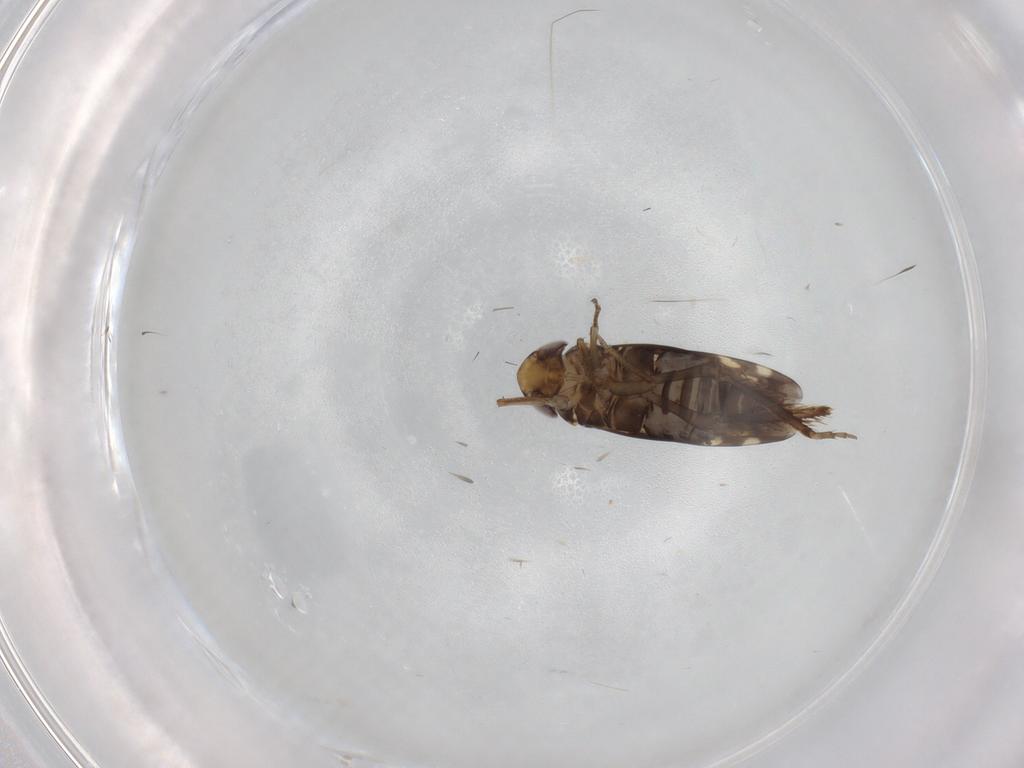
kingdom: Animalia
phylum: Arthropoda
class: Insecta
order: Hemiptera
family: Cicadellidae
